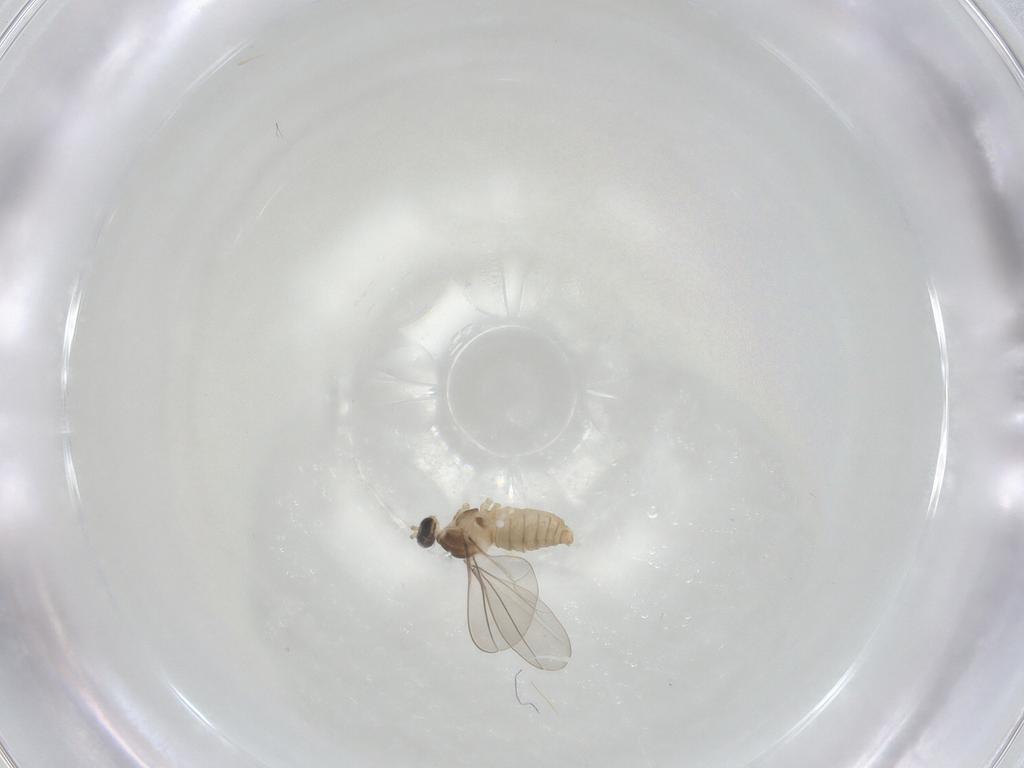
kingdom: Animalia
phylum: Arthropoda
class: Insecta
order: Diptera
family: Cecidomyiidae
